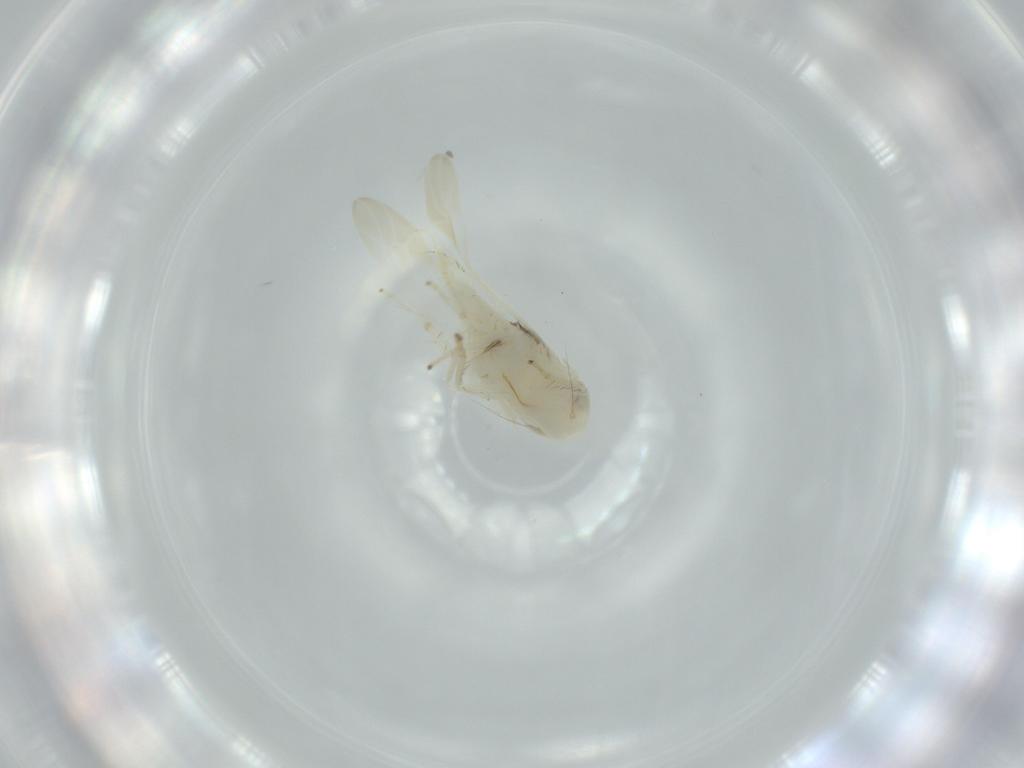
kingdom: Animalia
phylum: Arthropoda
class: Insecta
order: Hemiptera
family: Cicadellidae
